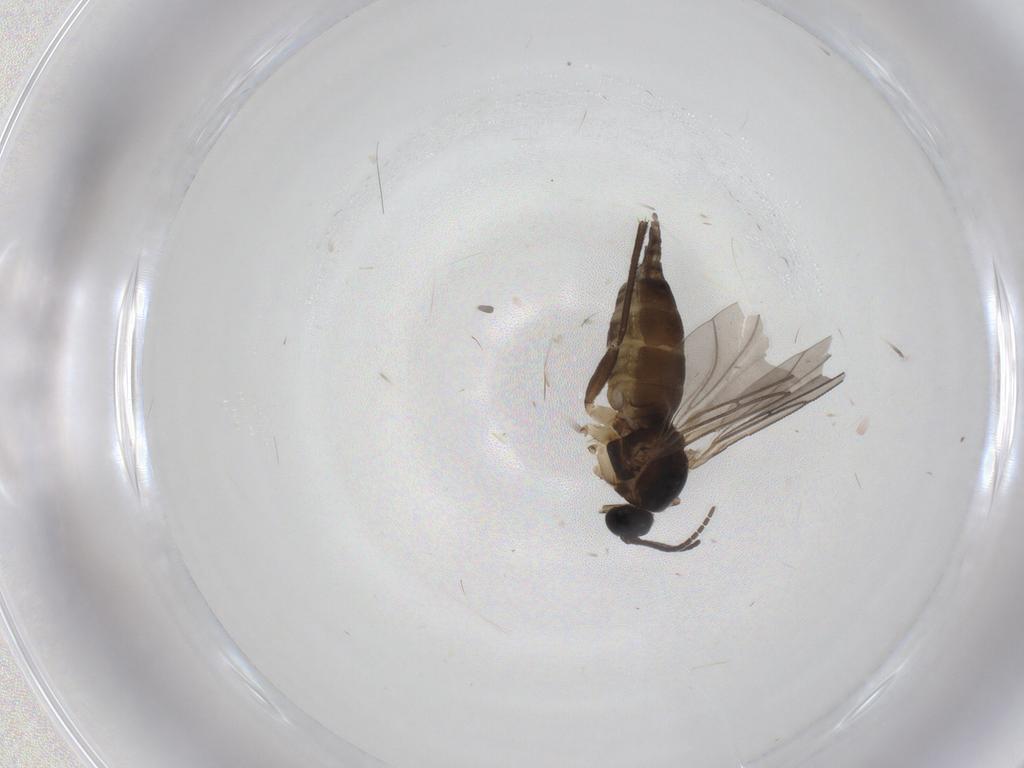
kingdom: Animalia
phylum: Arthropoda
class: Insecta
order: Diptera
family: Sciaridae
